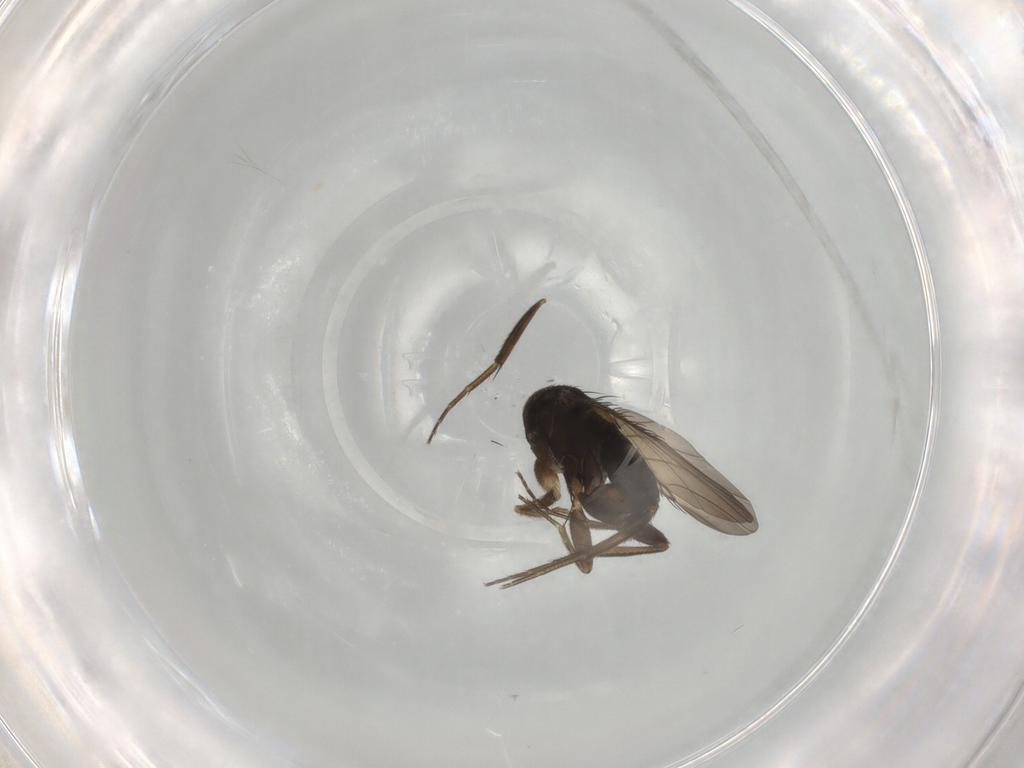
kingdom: Animalia
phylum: Arthropoda
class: Insecta
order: Diptera
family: Phoridae
